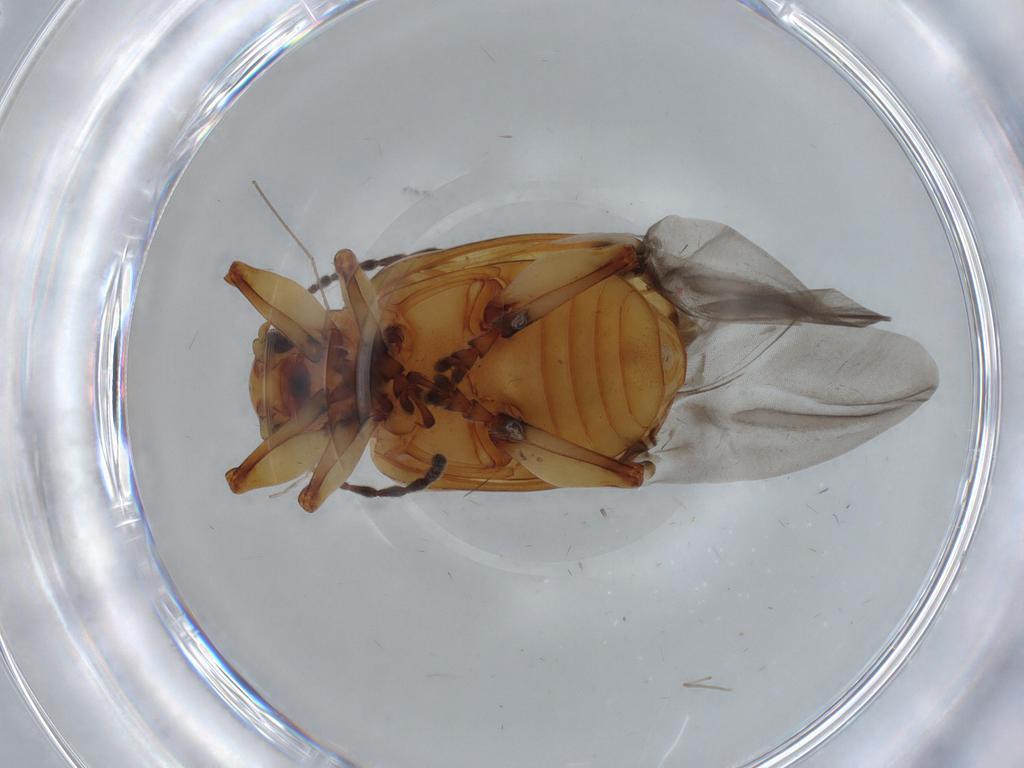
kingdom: Animalia
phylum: Arthropoda
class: Insecta
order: Coleoptera
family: Chrysomelidae
